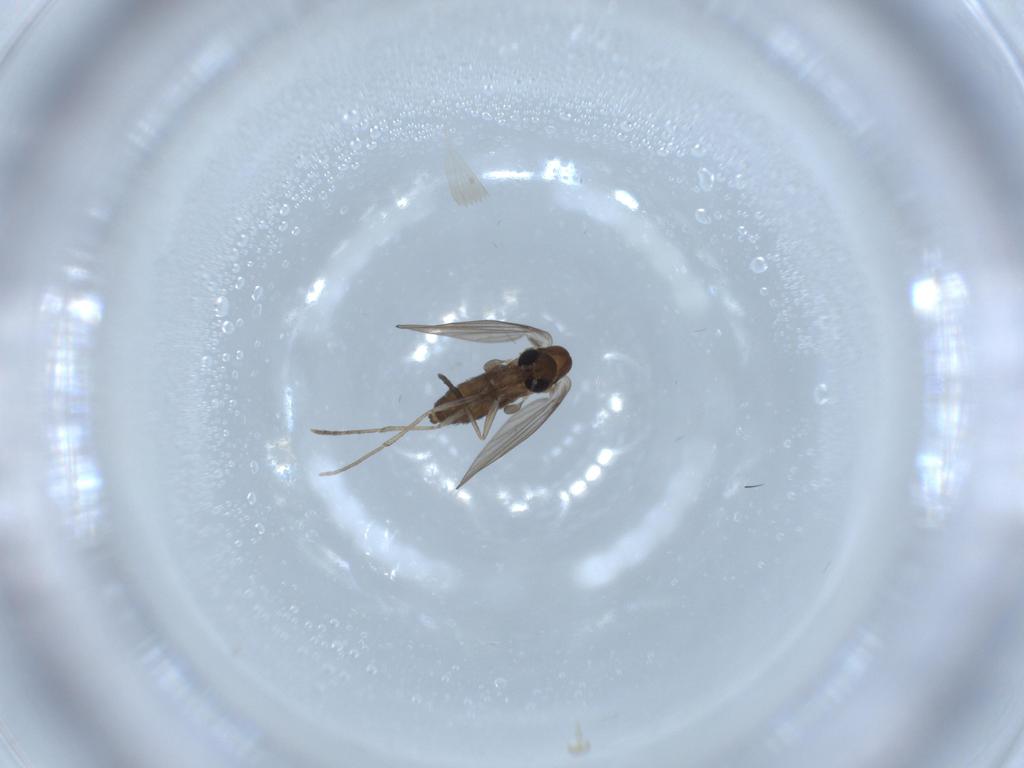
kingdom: Animalia
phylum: Arthropoda
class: Insecta
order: Diptera
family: Psychodidae
